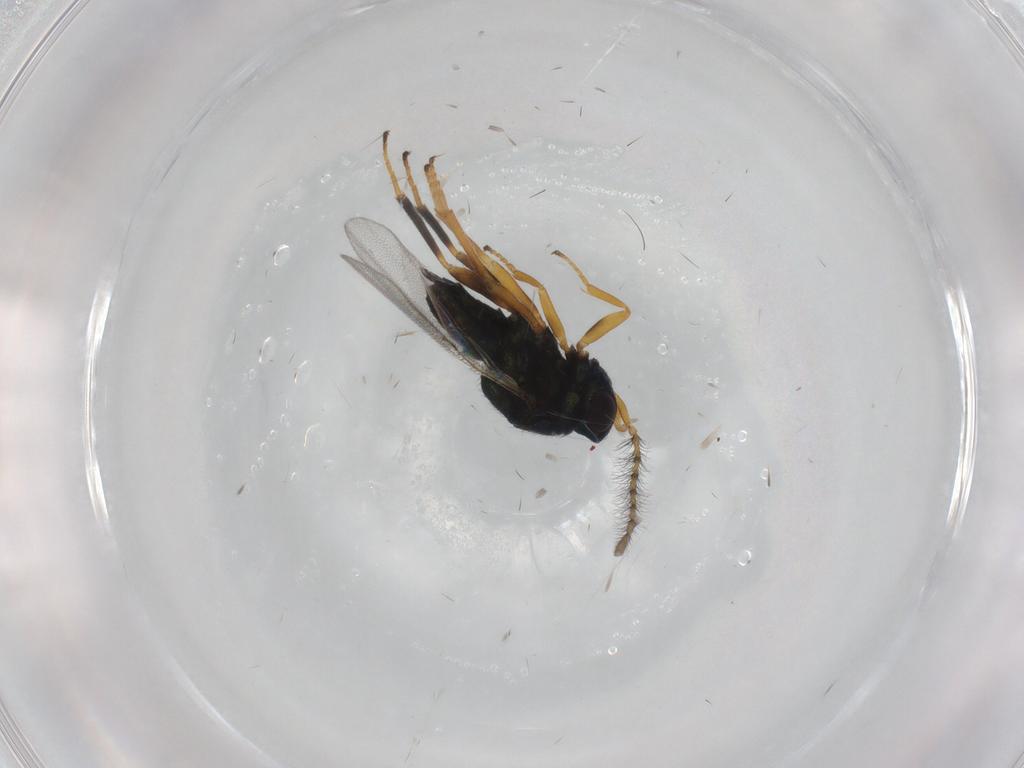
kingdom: Animalia
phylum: Arthropoda
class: Insecta
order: Hymenoptera
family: Encyrtidae
